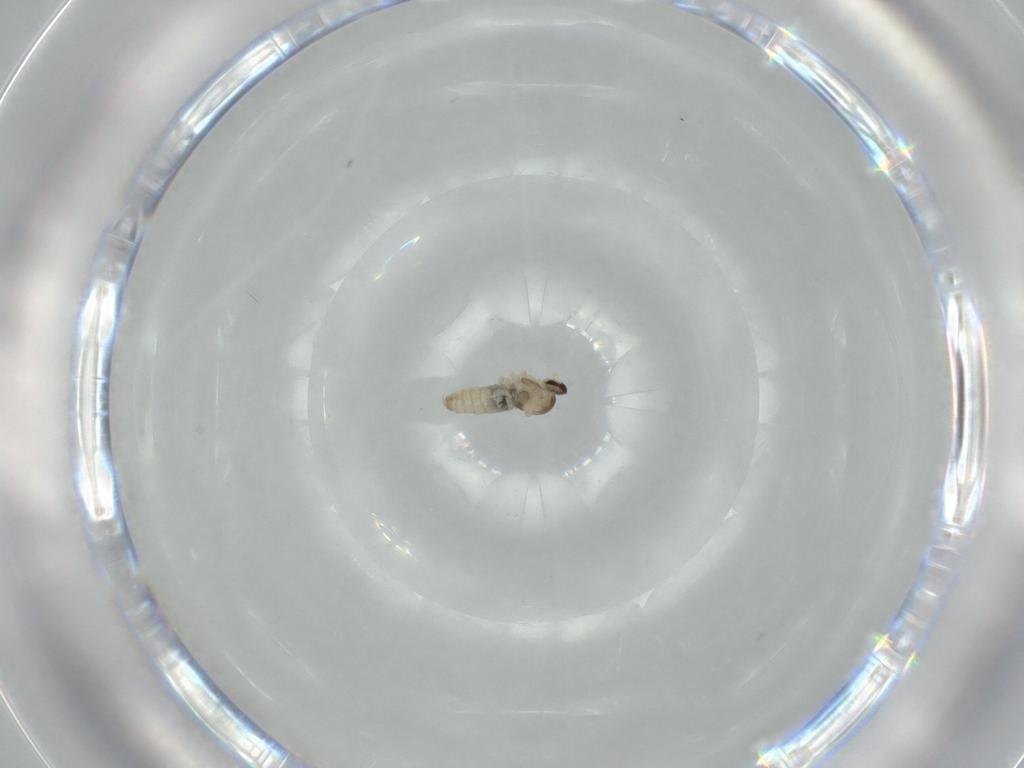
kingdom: Animalia
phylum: Arthropoda
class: Insecta
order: Diptera
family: Cecidomyiidae
